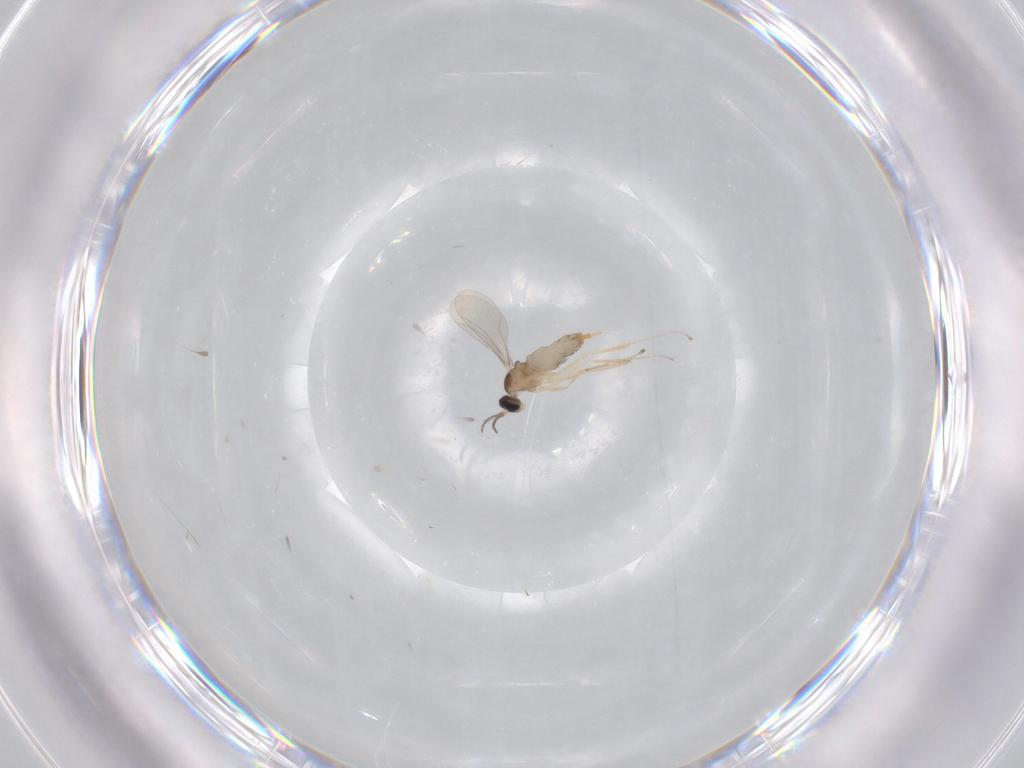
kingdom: Animalia
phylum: Arthropoda
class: Insecta
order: Diptera
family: Cecidomyiidae
